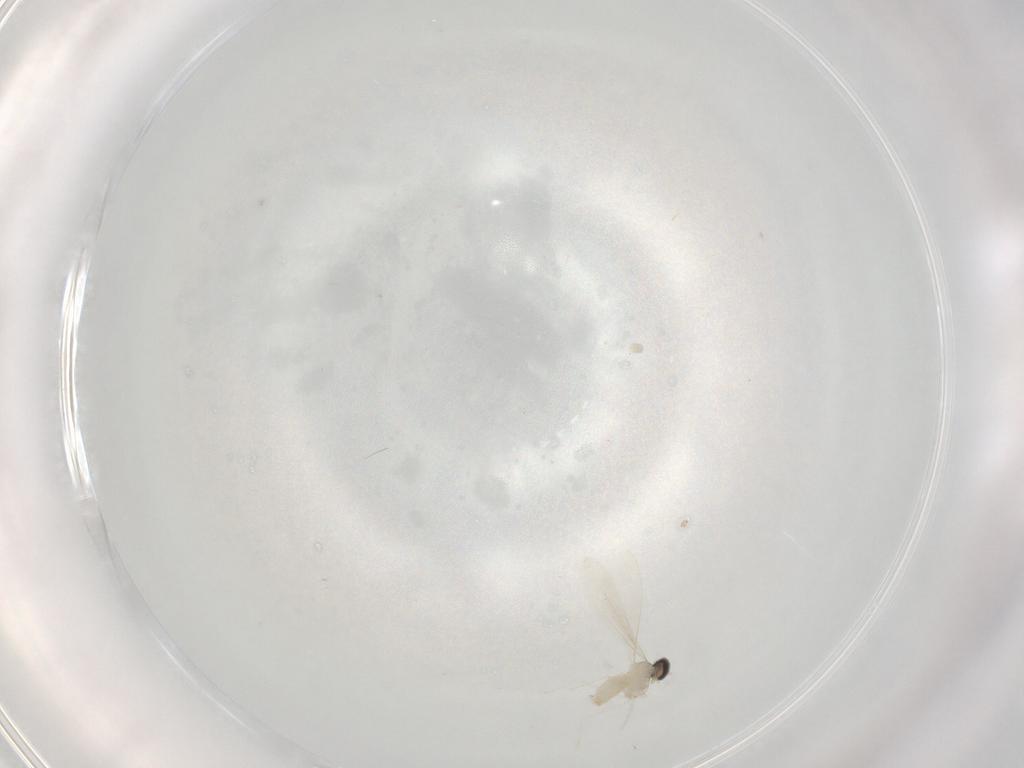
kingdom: Animalia
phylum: Arthropoda
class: Insecta
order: Diptera
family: Cecidomyiidae
